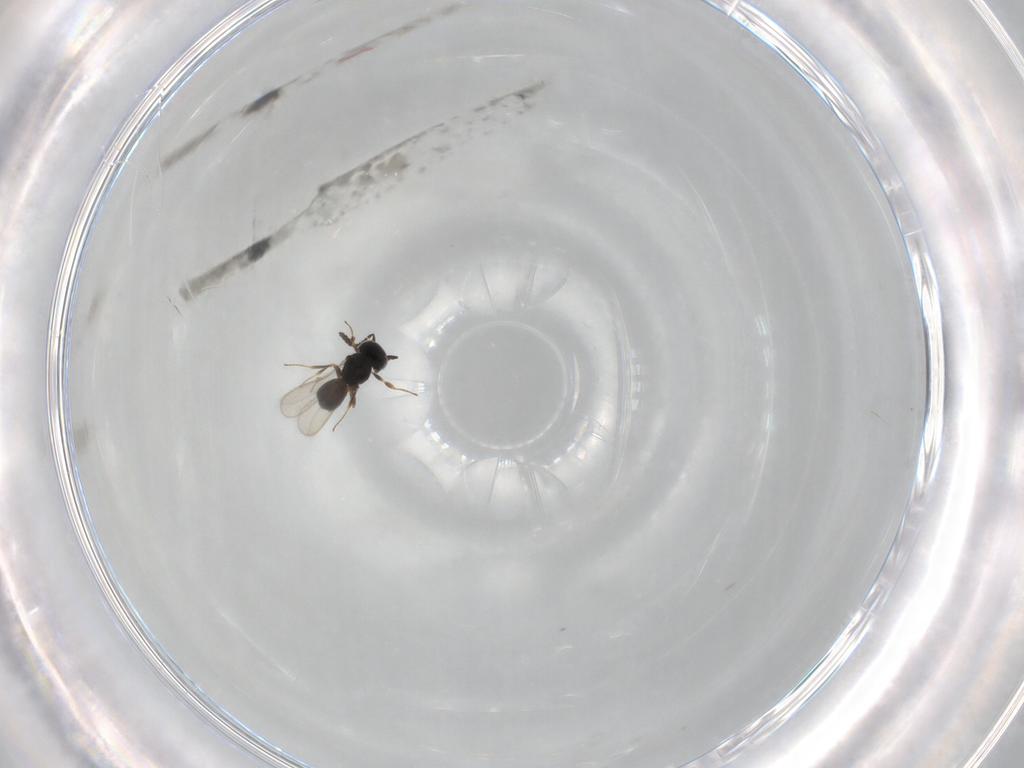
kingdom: Animalia
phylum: Arthropoda
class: Insecta
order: Hymenoptera
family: Scelionidae
